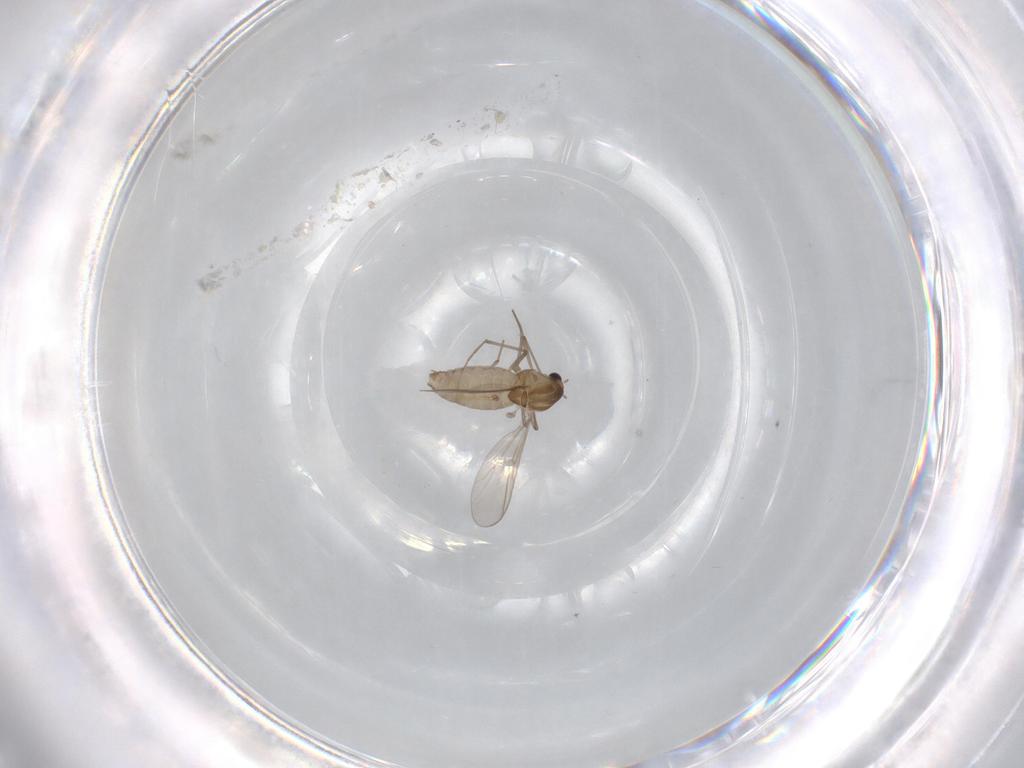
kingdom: Animalia
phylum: Arthropoda
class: Insecta
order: Diptera
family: Chironomidae
